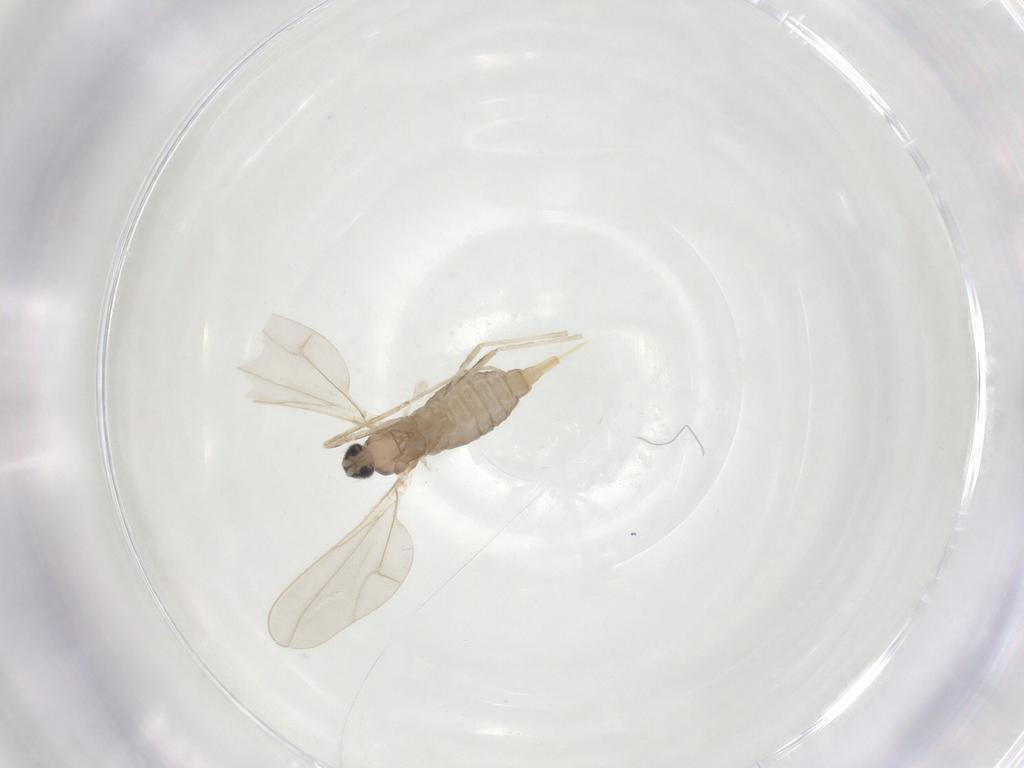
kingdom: Animalia
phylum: Arthropoda
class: Insecta
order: Diptera
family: Cecidomyiidae
